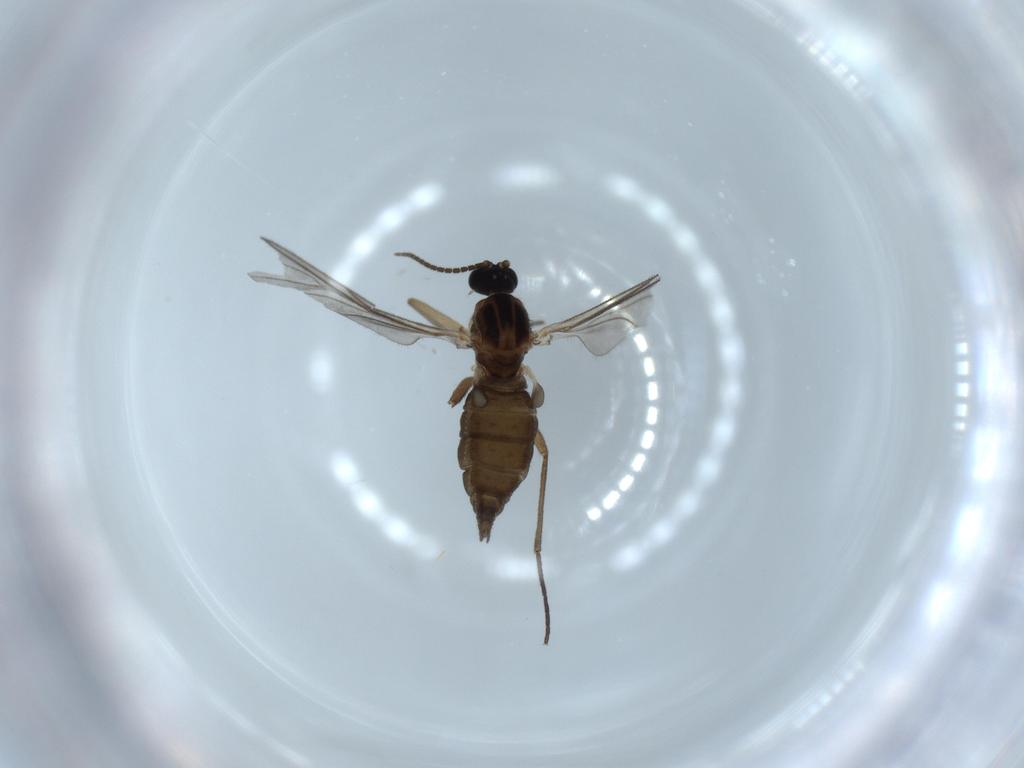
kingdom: Animalia
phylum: Arthropoda
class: Insecta
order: Diptera
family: Sciaridae
